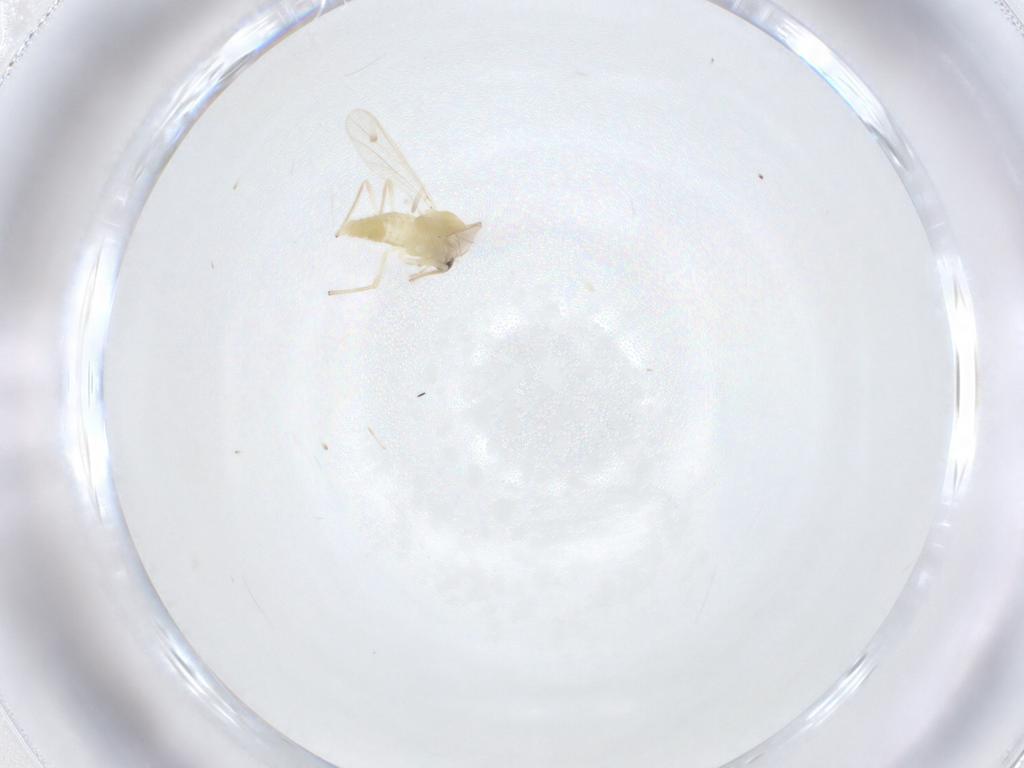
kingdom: Animalia
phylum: Arthropoda
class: Insecta
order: Diptera
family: Chironomidae
